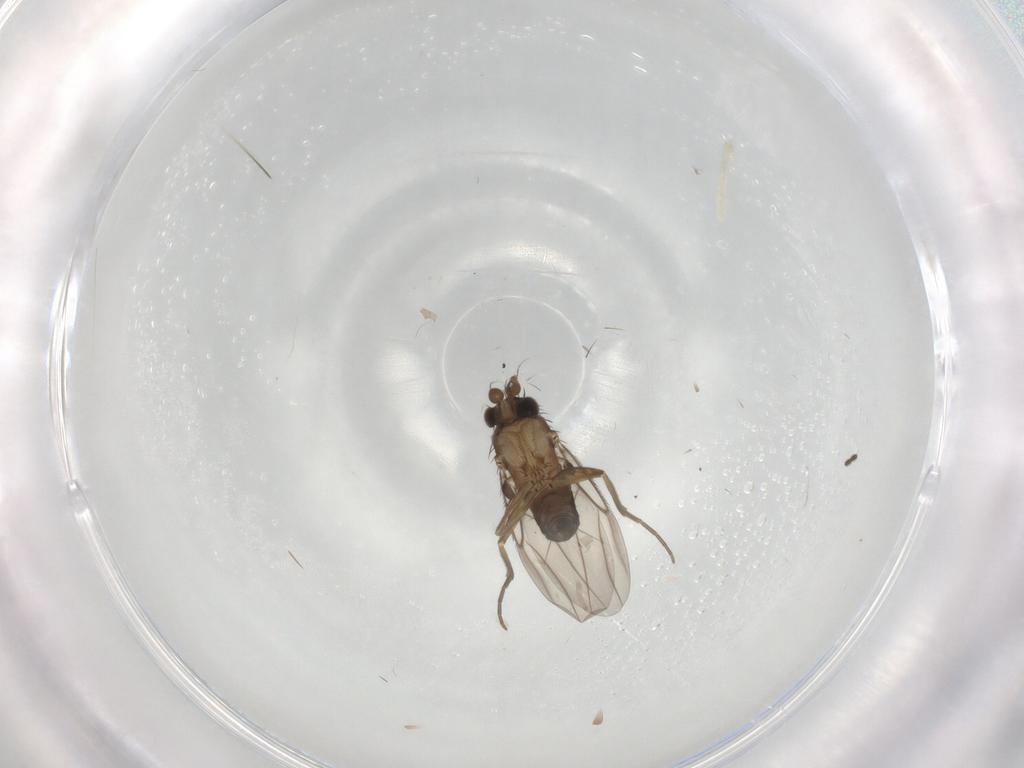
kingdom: Animalia
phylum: Arthropoda
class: Insecta
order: Diptera
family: Phoridae
